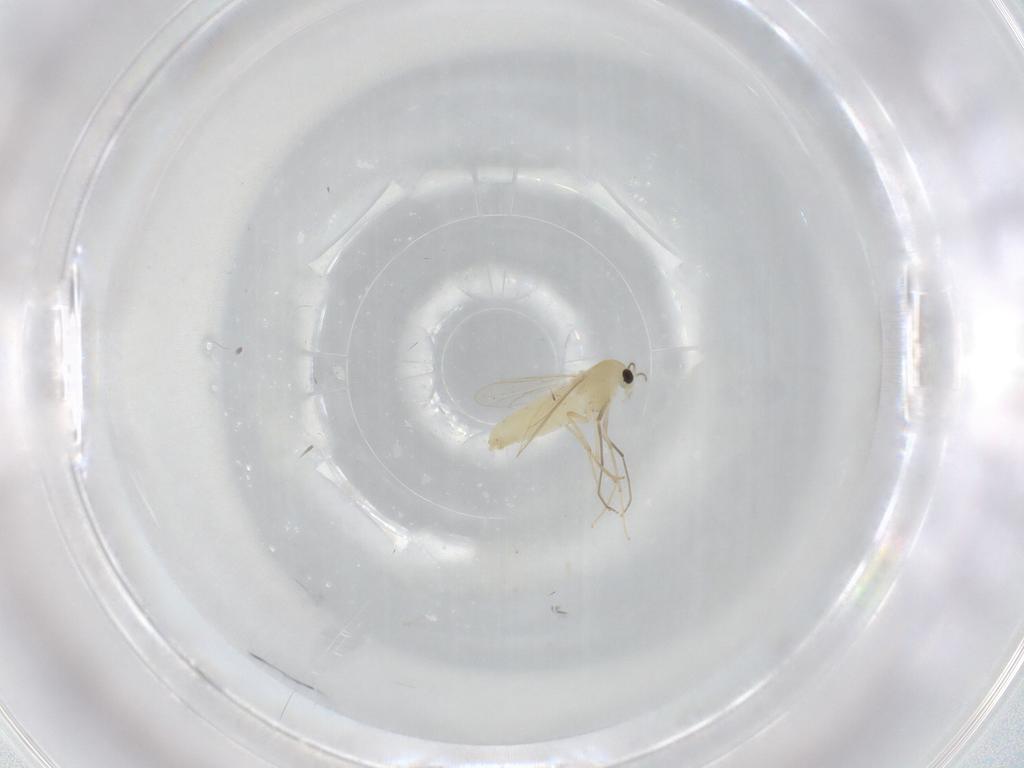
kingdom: Animalia
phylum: Arthropoda
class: Insecta
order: Diptera
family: Chironomidae
